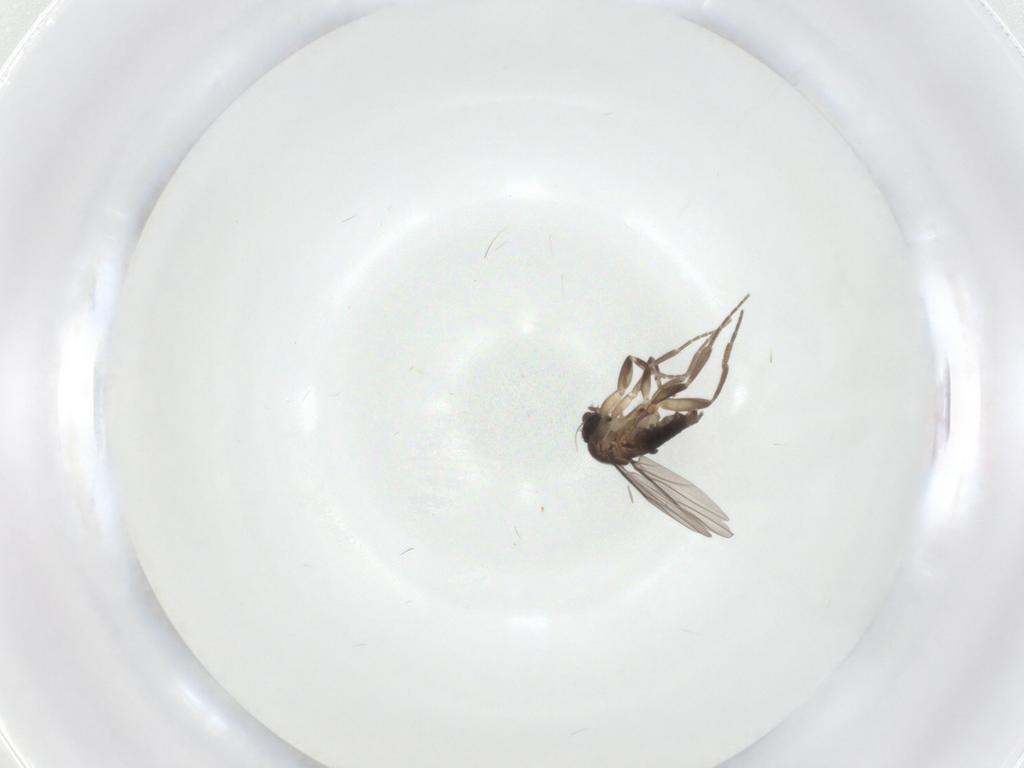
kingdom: Animalia
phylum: Arthropoda
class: Insecta
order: Diptera
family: Phoridae
